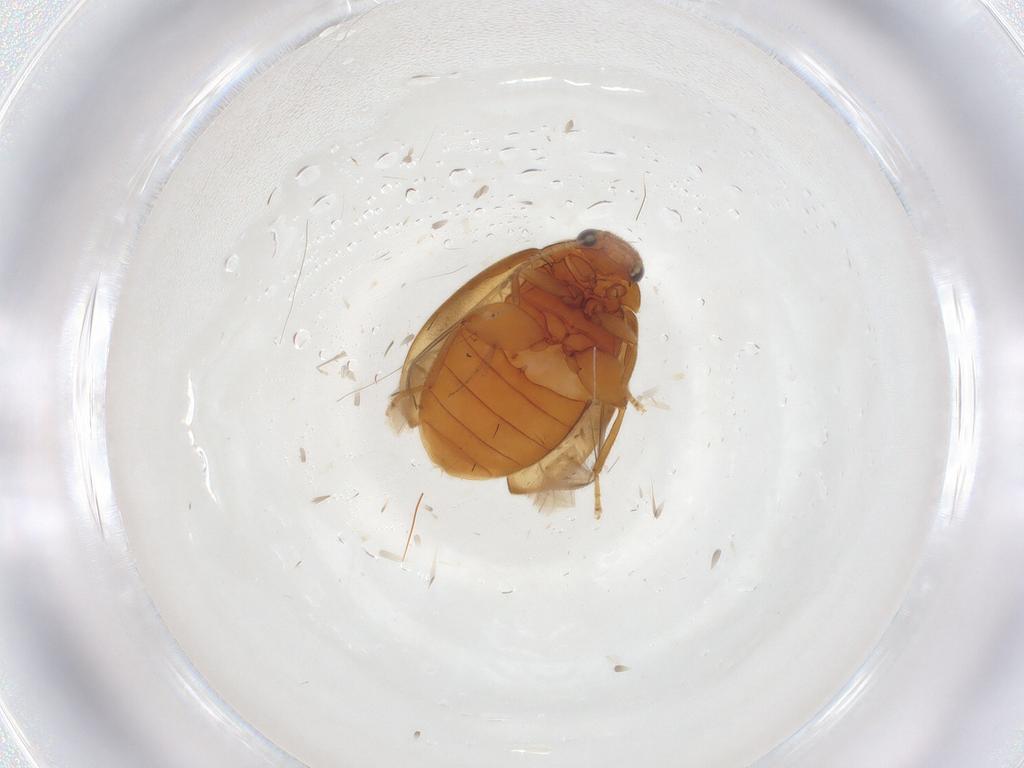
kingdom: Animalia
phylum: Arthropoda
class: Insecta
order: Coleoptera
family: Scirtidae
